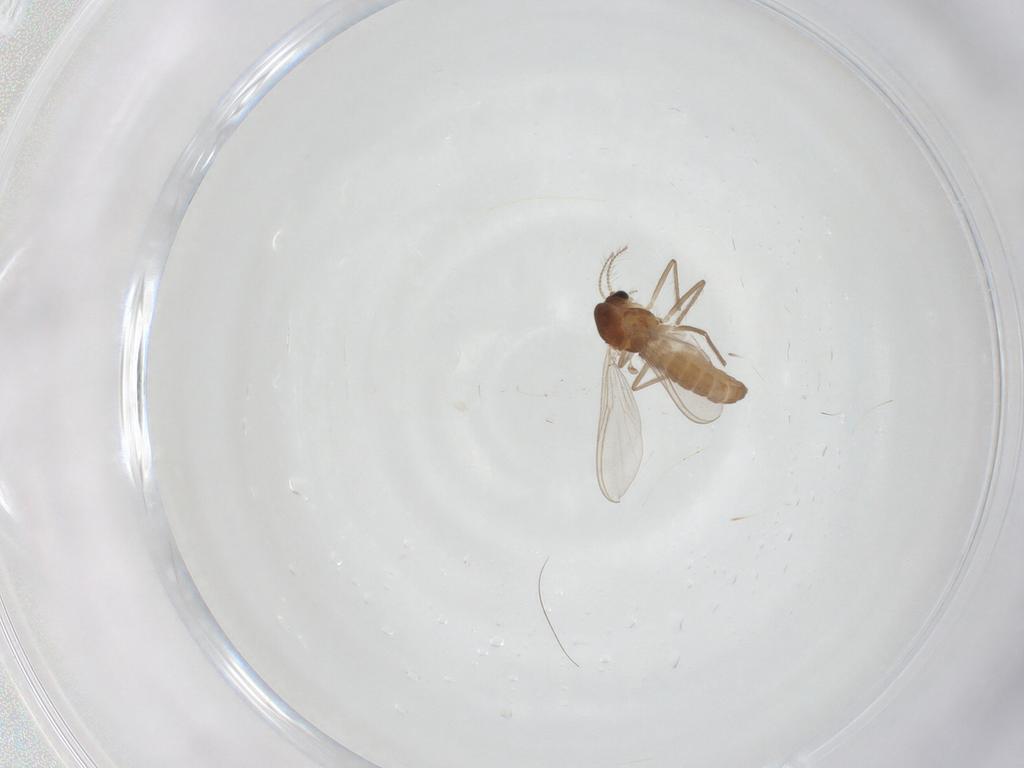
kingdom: Animalia
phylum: Arthropoda
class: Insecta
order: Diptera
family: Chironomidae
